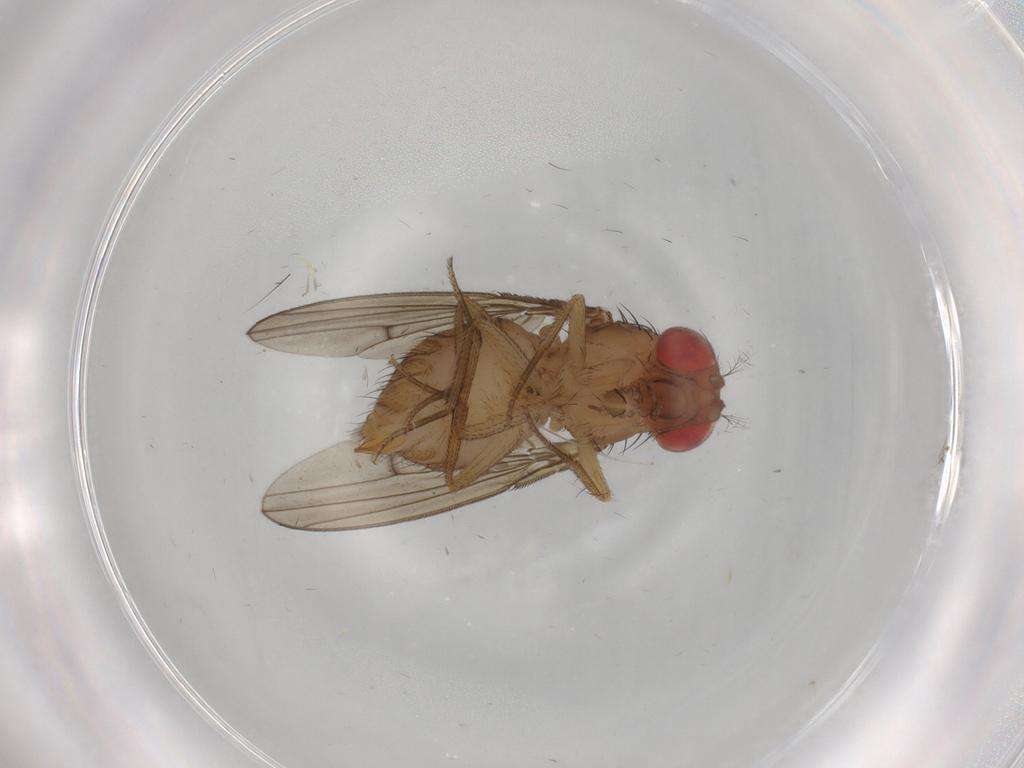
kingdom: Animalia
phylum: Arthropoda
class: Insecta
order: Diptera
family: Drosophilidae
